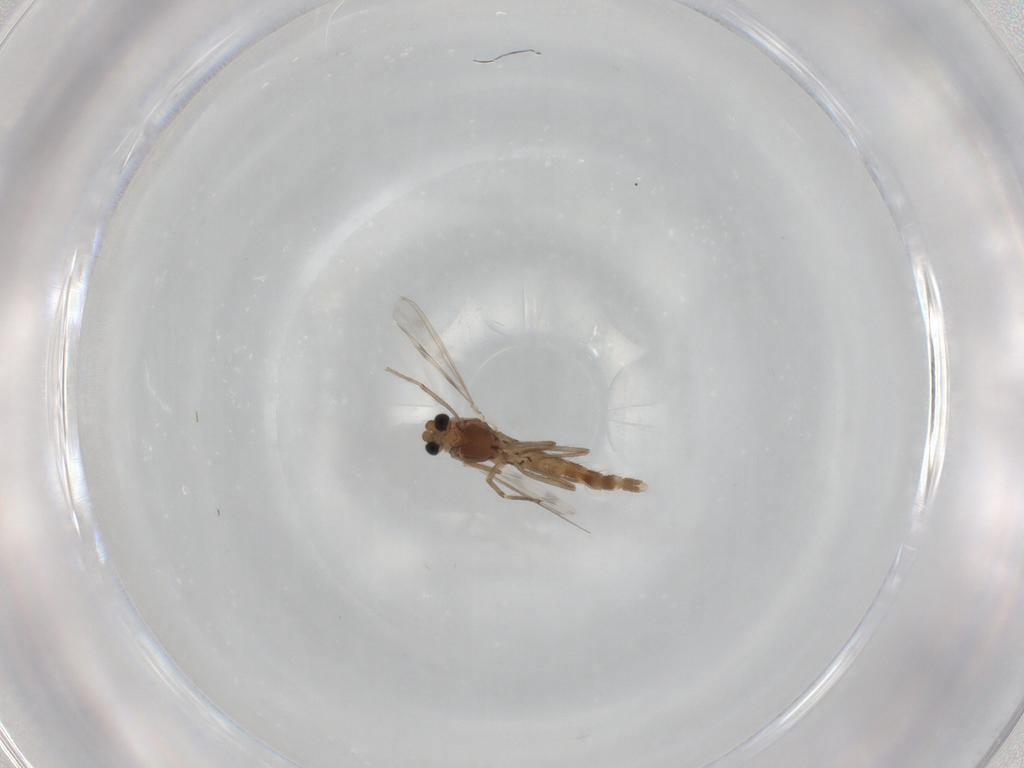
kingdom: Animalia
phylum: Arthropoda
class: Insecta
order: Diptera
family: Chironomidae
